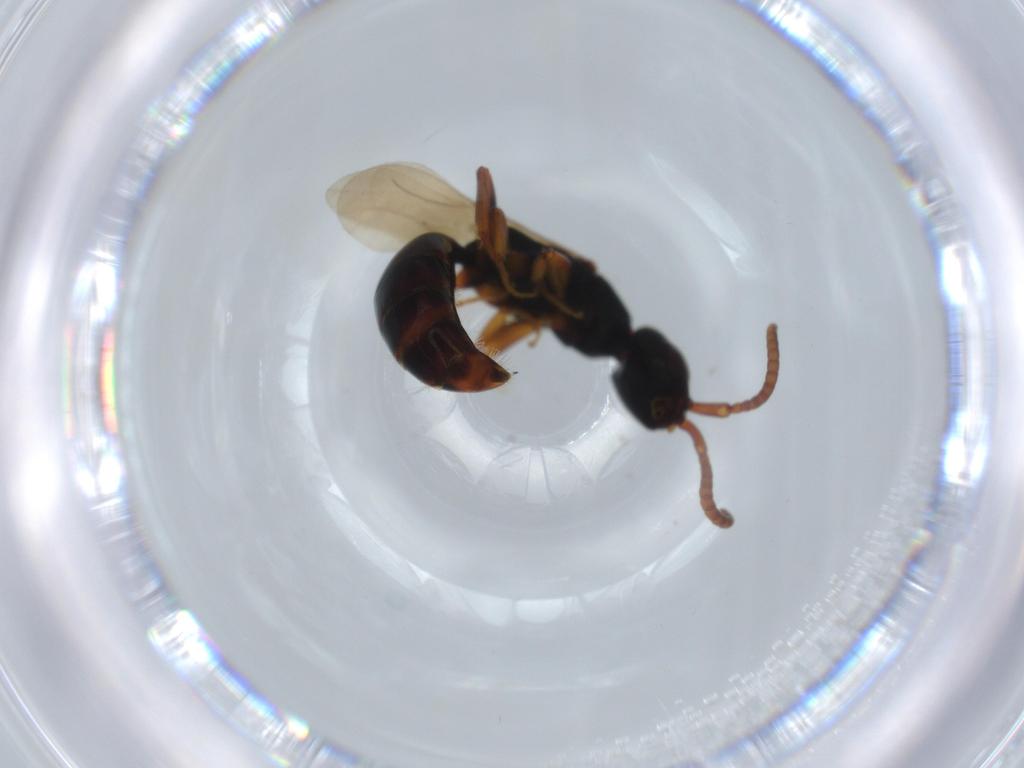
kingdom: Animalia
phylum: Arthropoda
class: Insecta
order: Hymenoptera
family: Bethylidae
